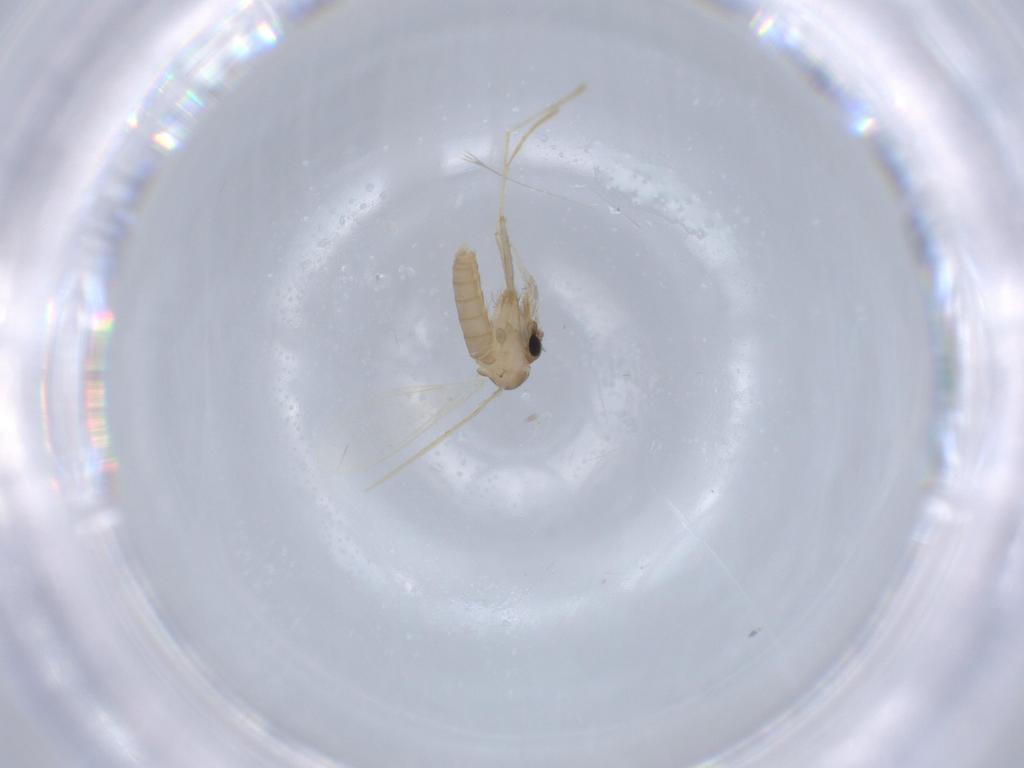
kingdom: Animalia
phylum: Arthropoda
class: Insecta
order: Diptera
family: Psychodidae
